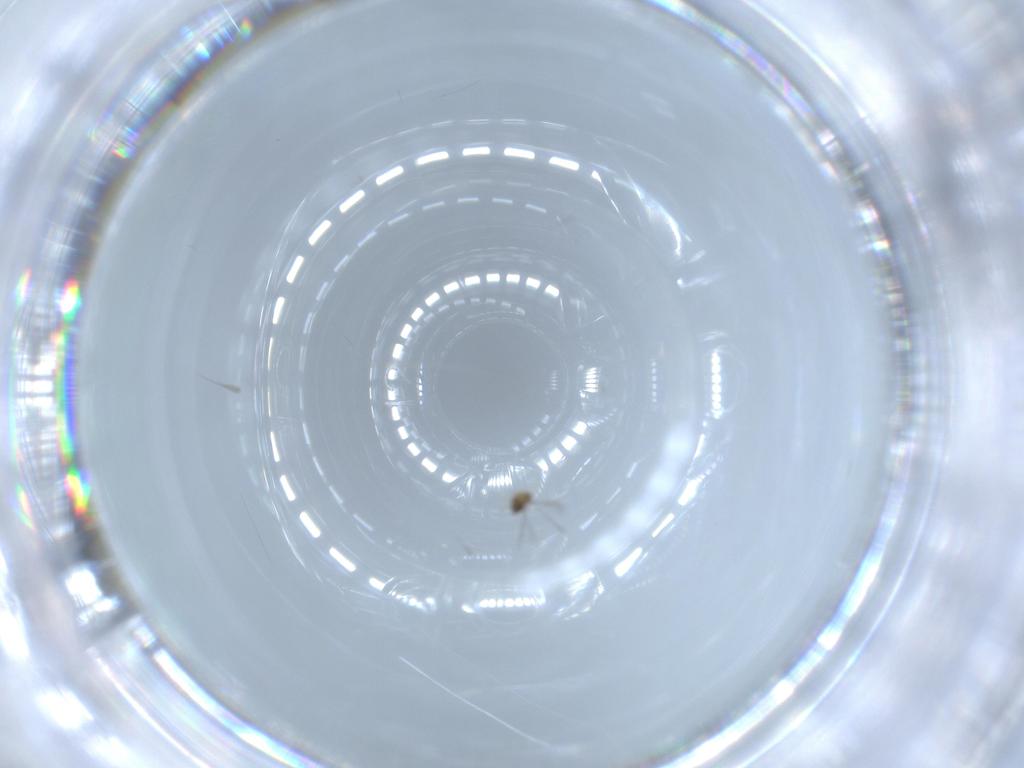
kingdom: Animalia
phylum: Arthropoda
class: Insecta
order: Hymenoptera
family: Mymaridae
